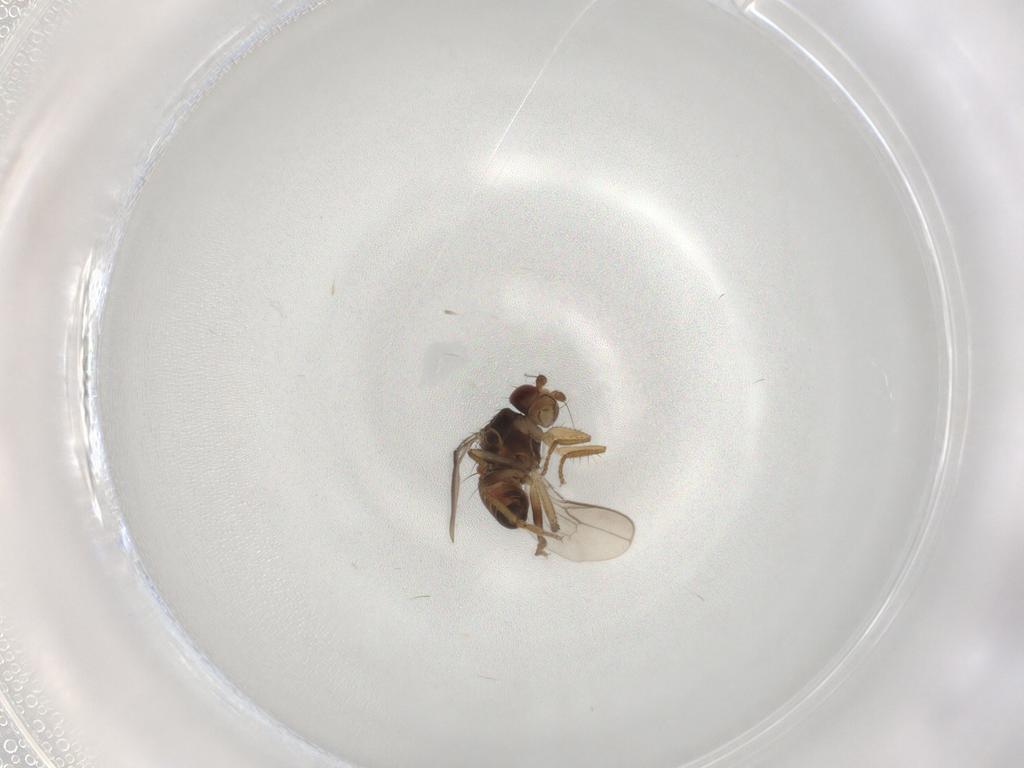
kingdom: Animalia
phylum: Arthropoda
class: Insecta
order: Diptera
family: Sphaeroceridae
